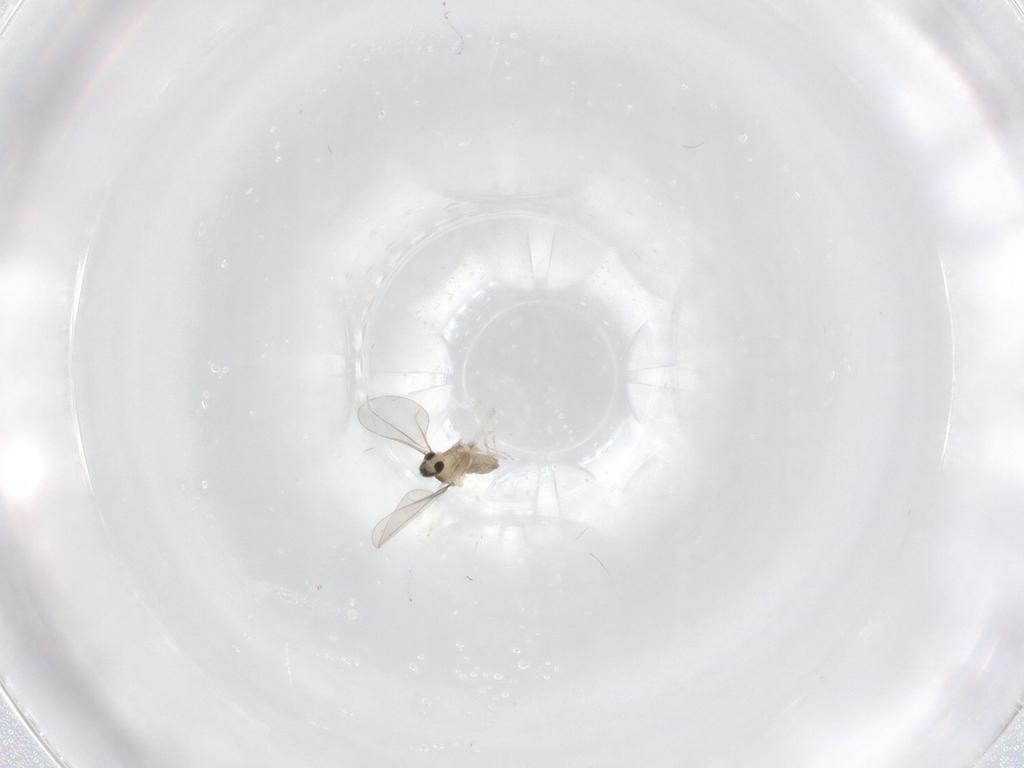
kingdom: Animalia
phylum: Arthropoda
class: Insecta
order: Diptera
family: Cecidomyiidae
